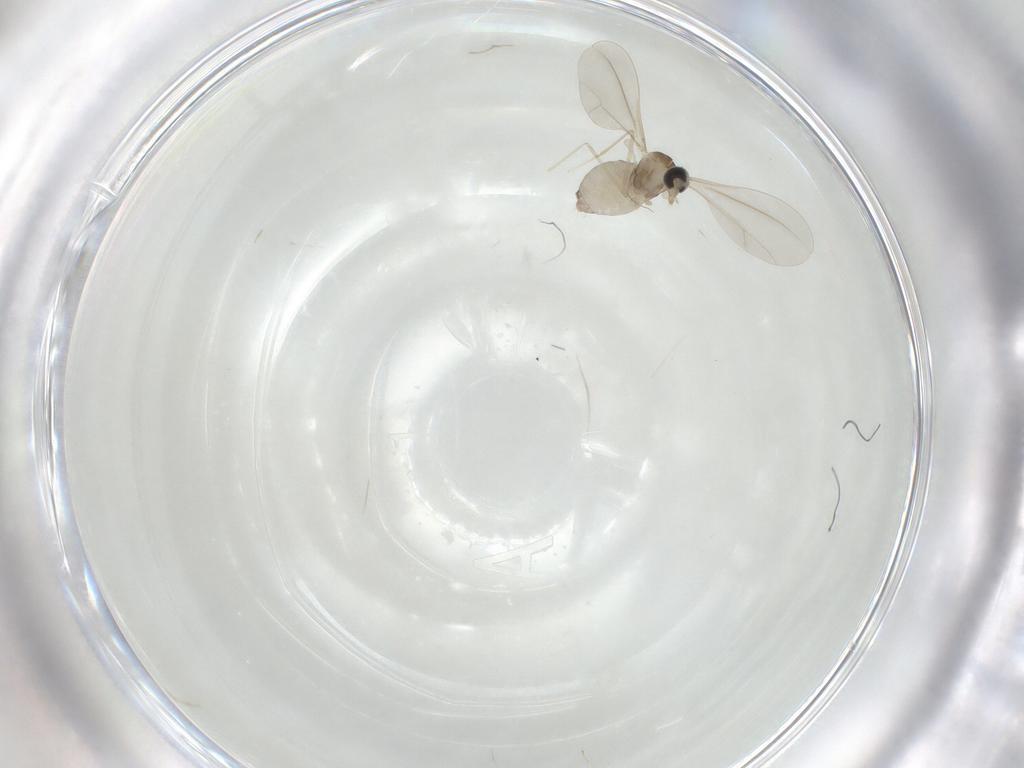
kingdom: Animalia
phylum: Arthropoda
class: Insecta
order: Diptera
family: Cecidomyiidae
